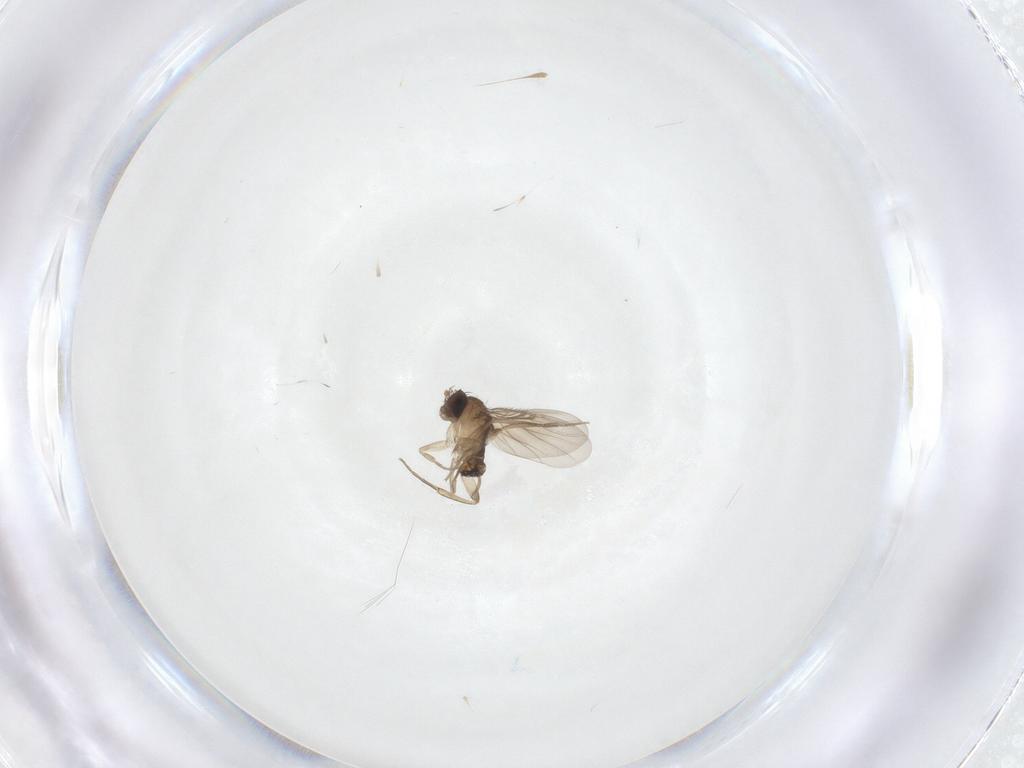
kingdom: Animalia
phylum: Arthropoda
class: Insecta
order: Diptera
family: Phoridae
